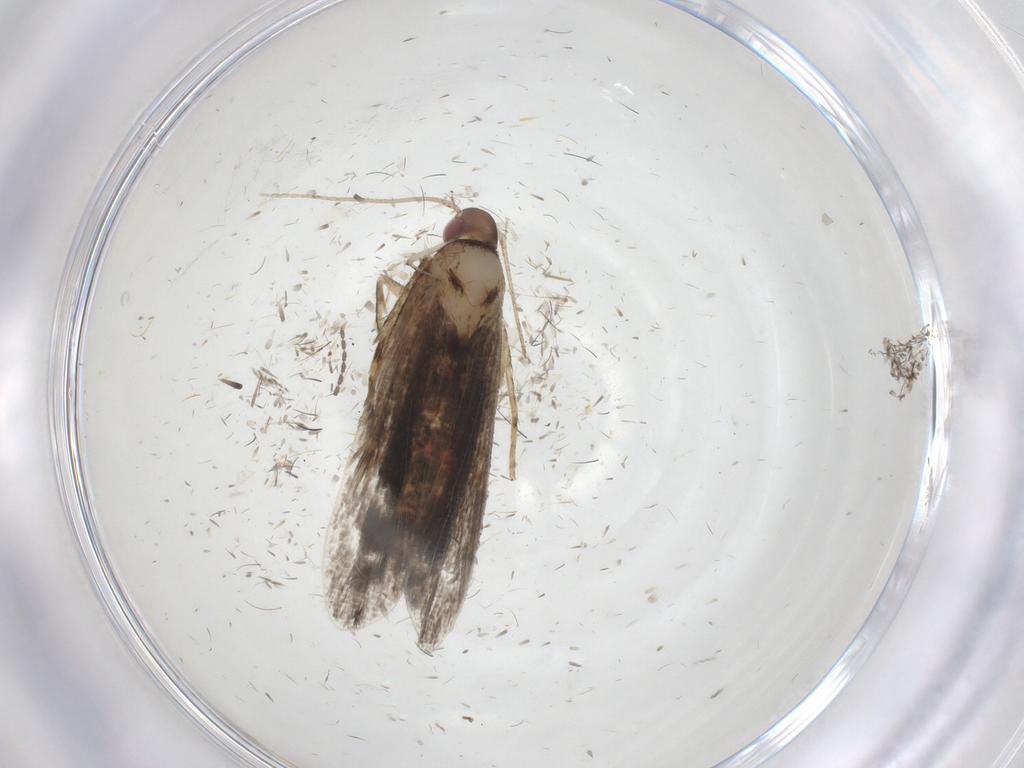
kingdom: Animalia
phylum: Arthropoda
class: Insecta
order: Lepidoptera
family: Gelechiidae
